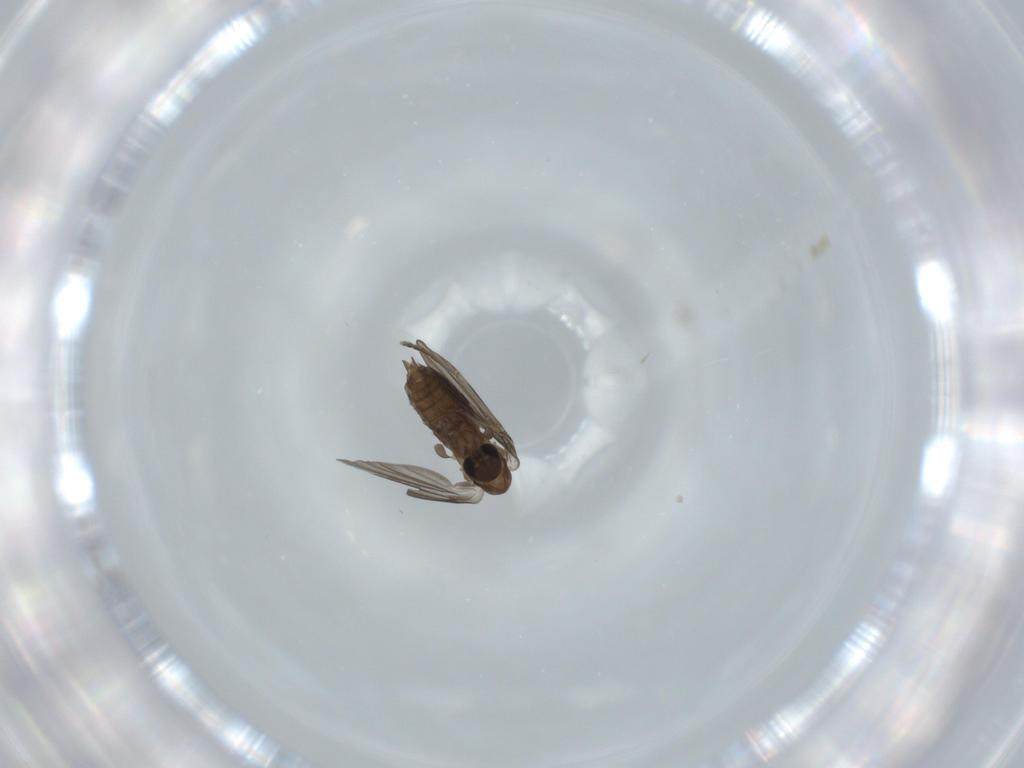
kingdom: Animalia
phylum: Arthropoda
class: Insecta
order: Diptera
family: Psychodidae
